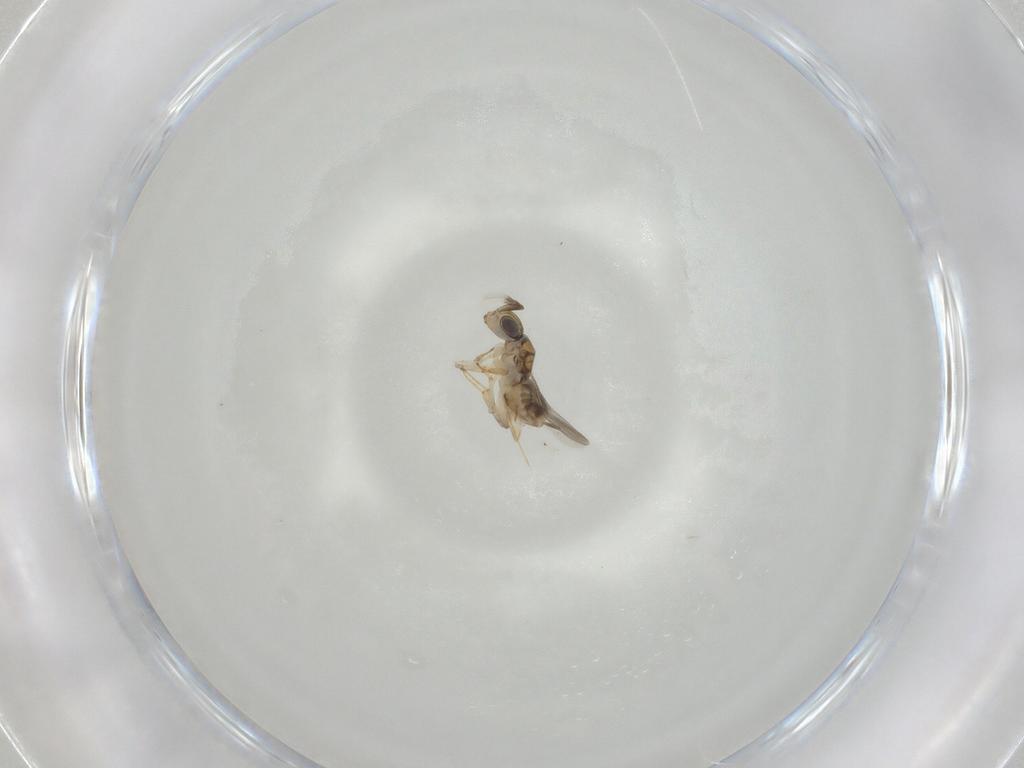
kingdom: Animalia
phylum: Arthropoda
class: Insecta
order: Hymenoptera
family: Encyrtidae
